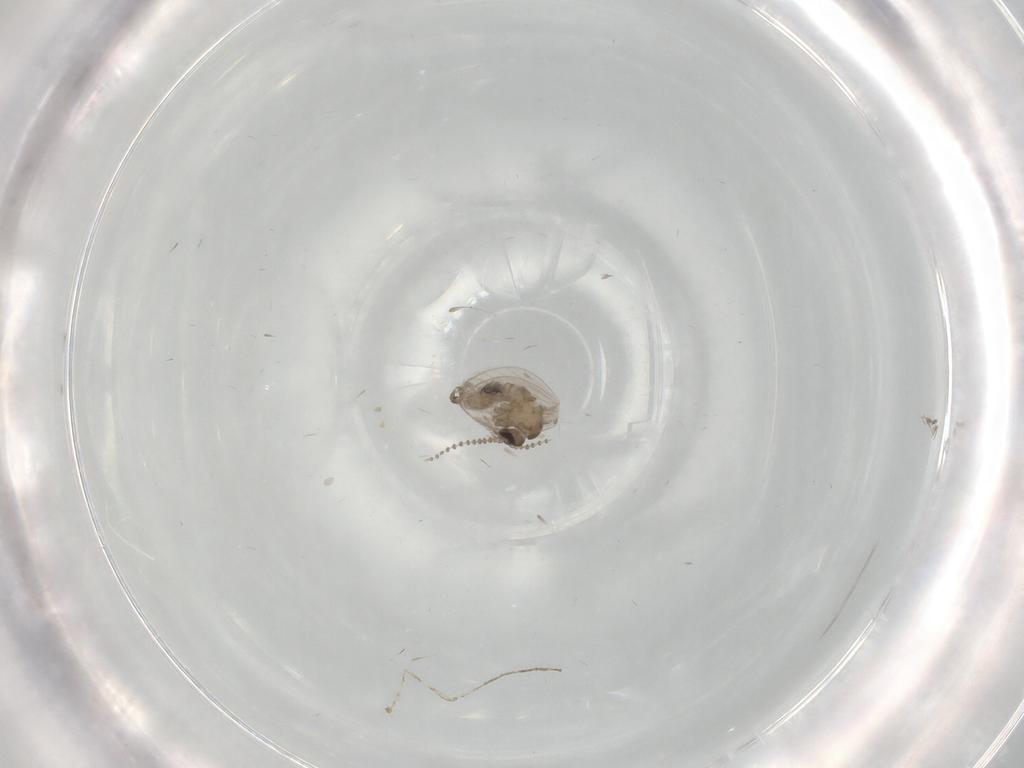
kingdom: Animalia
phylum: Arthropoda
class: Insecta
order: Diptera
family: Psychodidae
